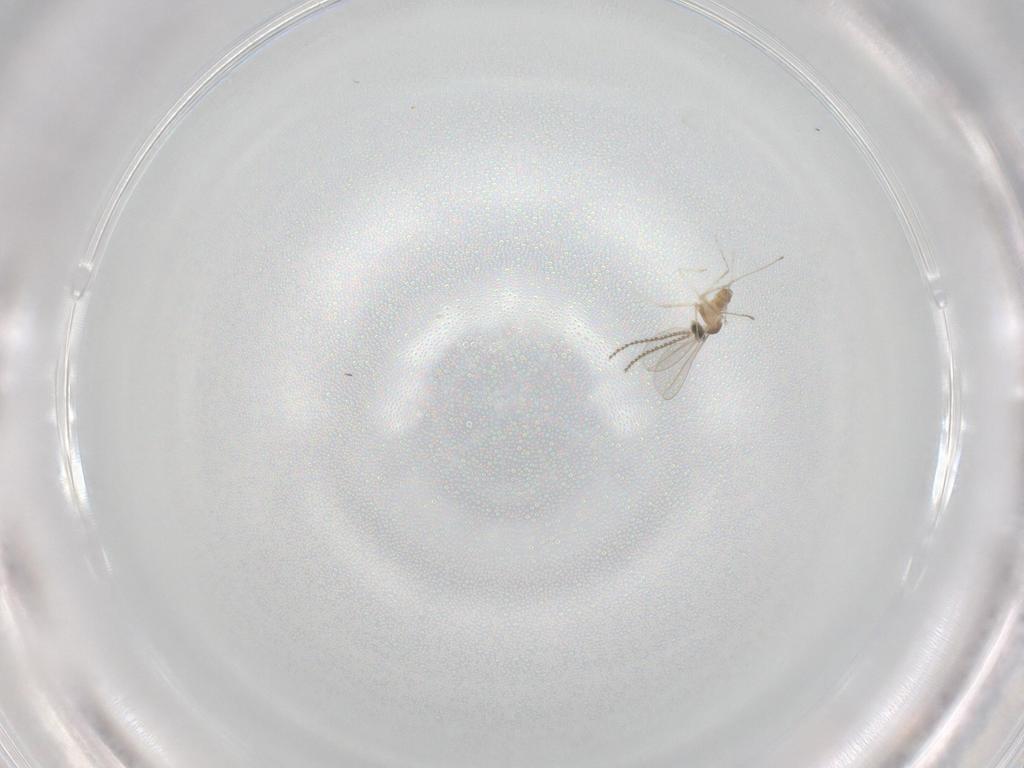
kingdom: Animalia
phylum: Arthropoda
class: Insecta
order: Diptera
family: Cecidomyiidae
